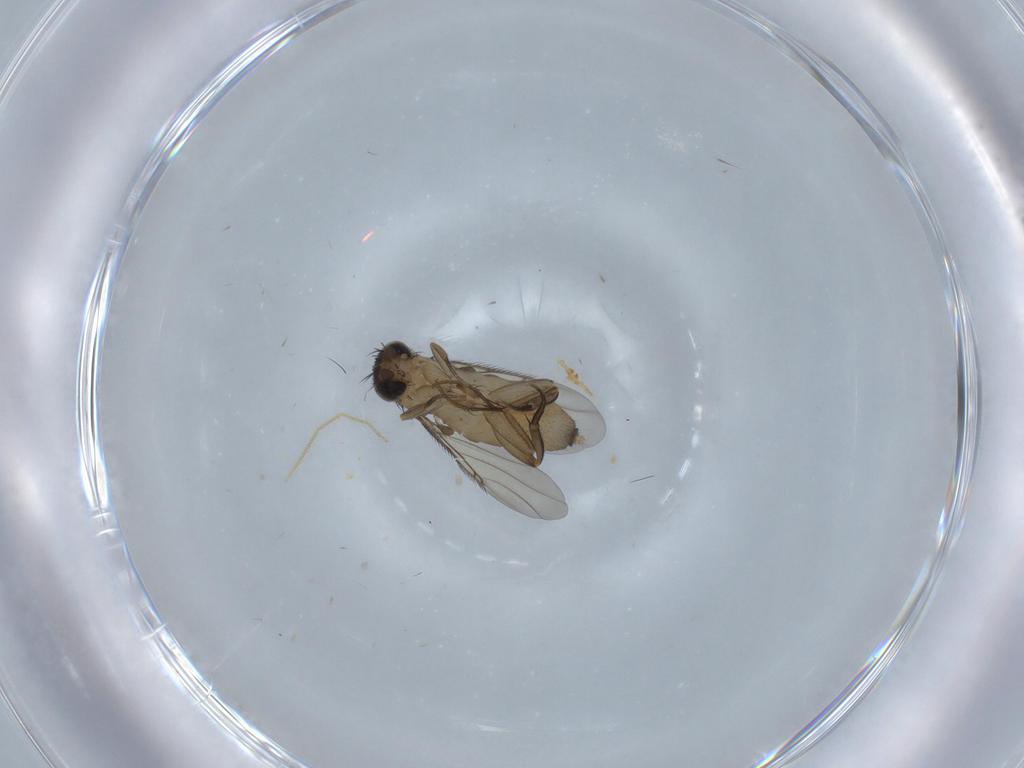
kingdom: Animalia
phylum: Arthropoda
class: Insecta
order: Diptera
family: Phoridae
